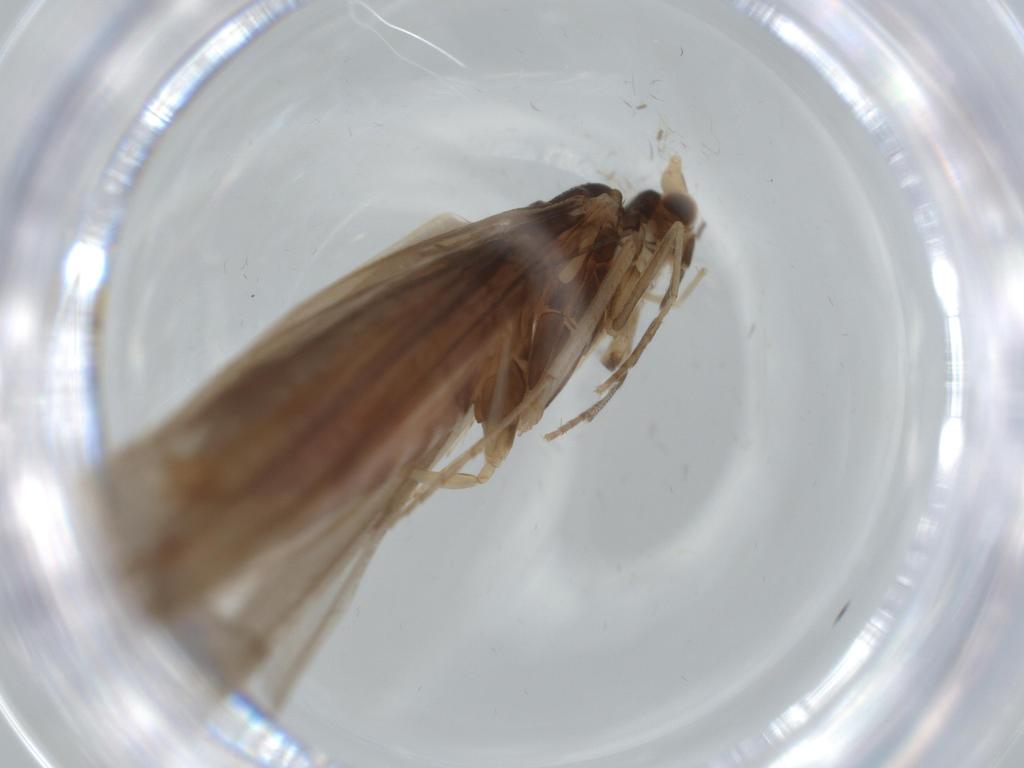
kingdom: Animalia
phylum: Arthropoda
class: Insecta
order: Trichoptera
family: Leptoceridae
